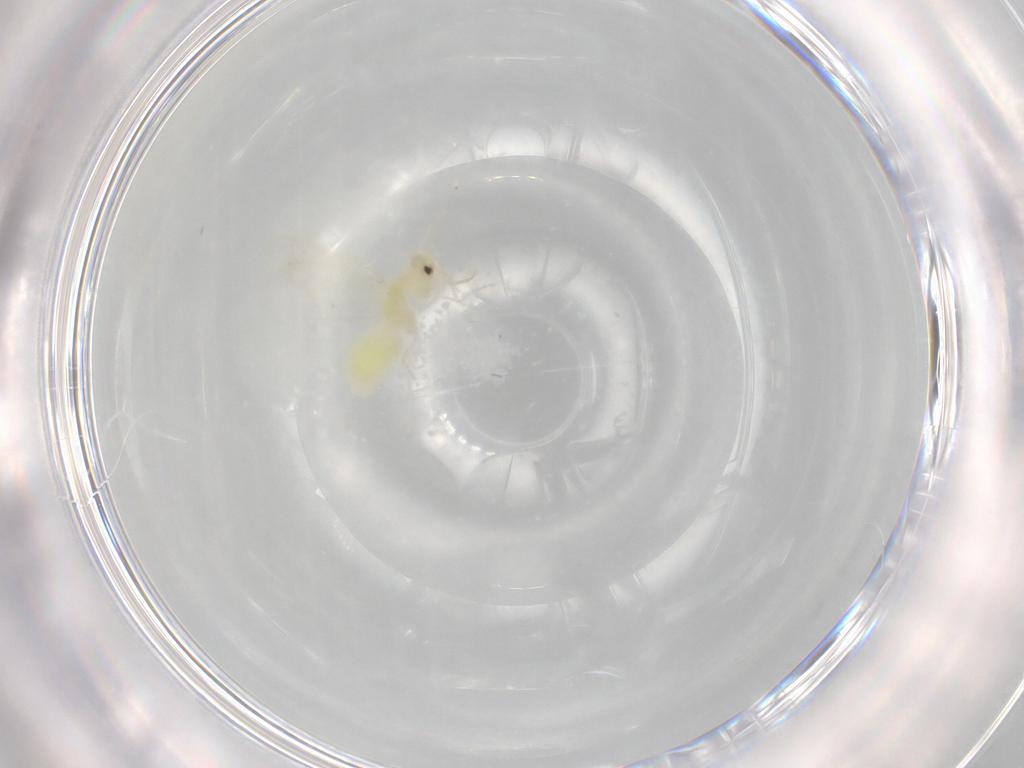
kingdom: Animalia
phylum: Arthropoda
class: Insecta
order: Hemiptera
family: Aleyrodidae
